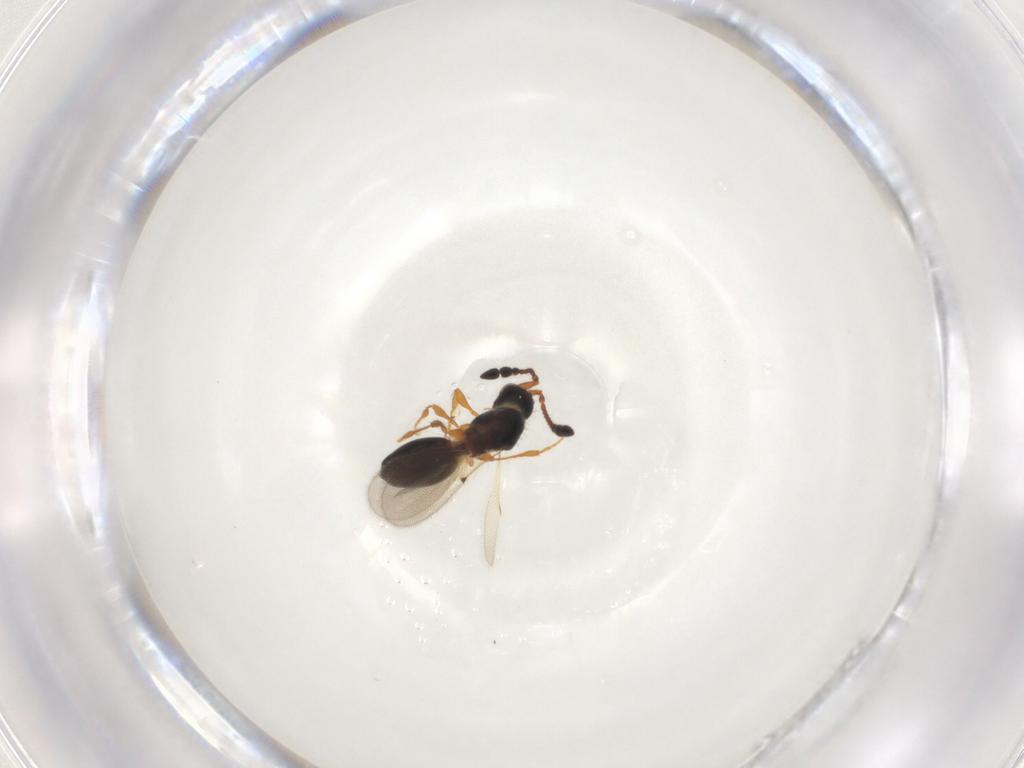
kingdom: Animalia
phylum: Arthropoda
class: Insecta
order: Hymenoptera
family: Diapriidae
